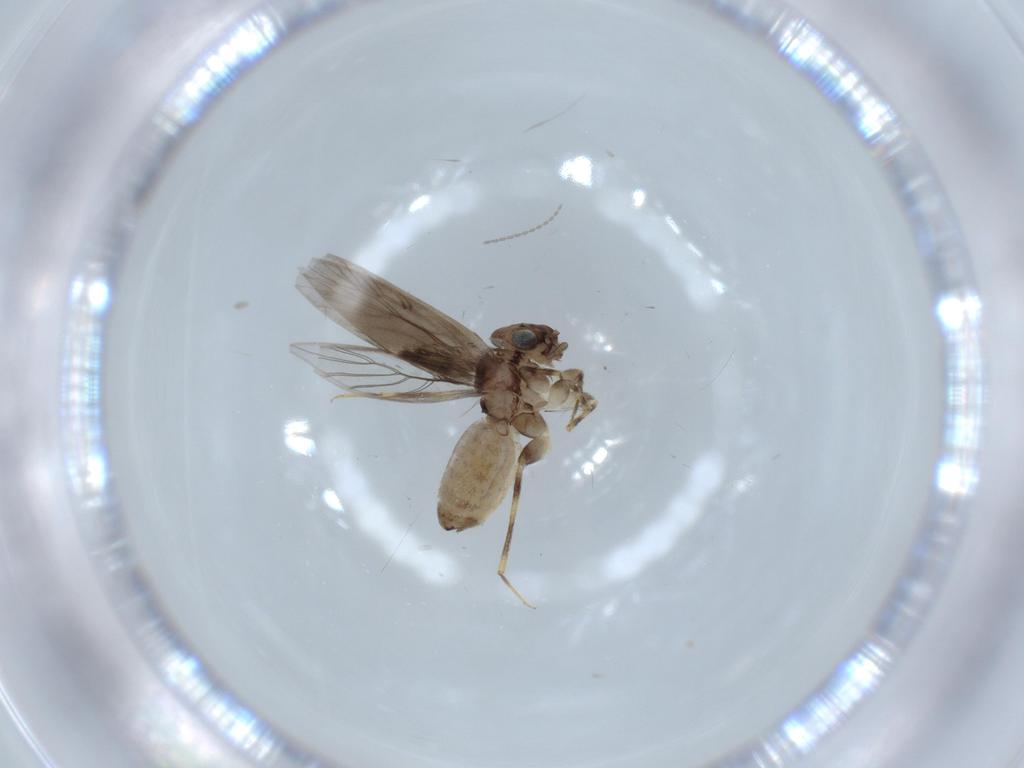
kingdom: Animalia
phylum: Arthropoda
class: Insecta
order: Psocodea
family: Lepidopsocidae
